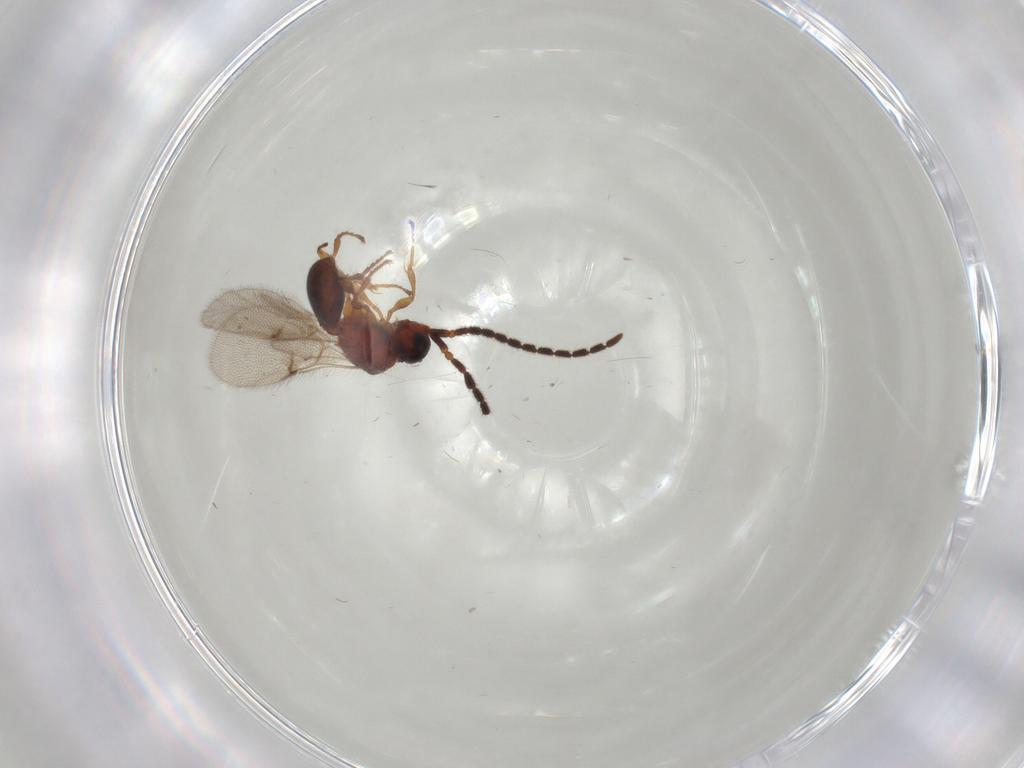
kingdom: Animalia
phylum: Arthropoda
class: Insecta
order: Hymenoptera
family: Diapriidae
